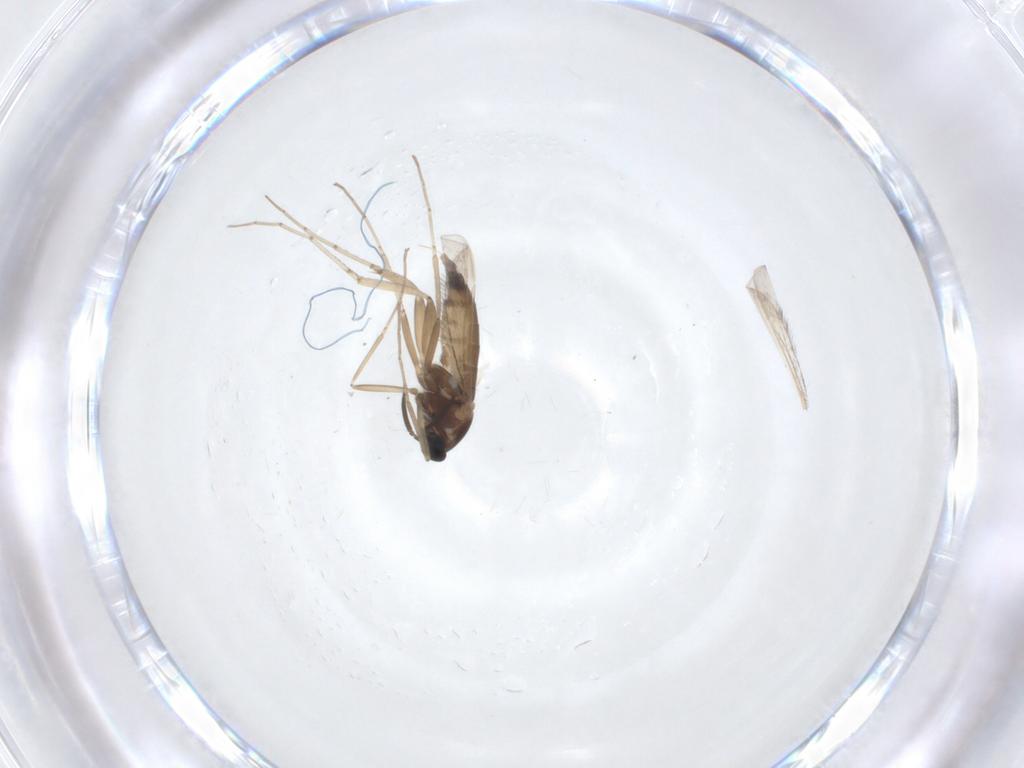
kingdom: Animalia
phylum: Arthropoda
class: Insecta
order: Diptera
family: Cecidomyiidae
